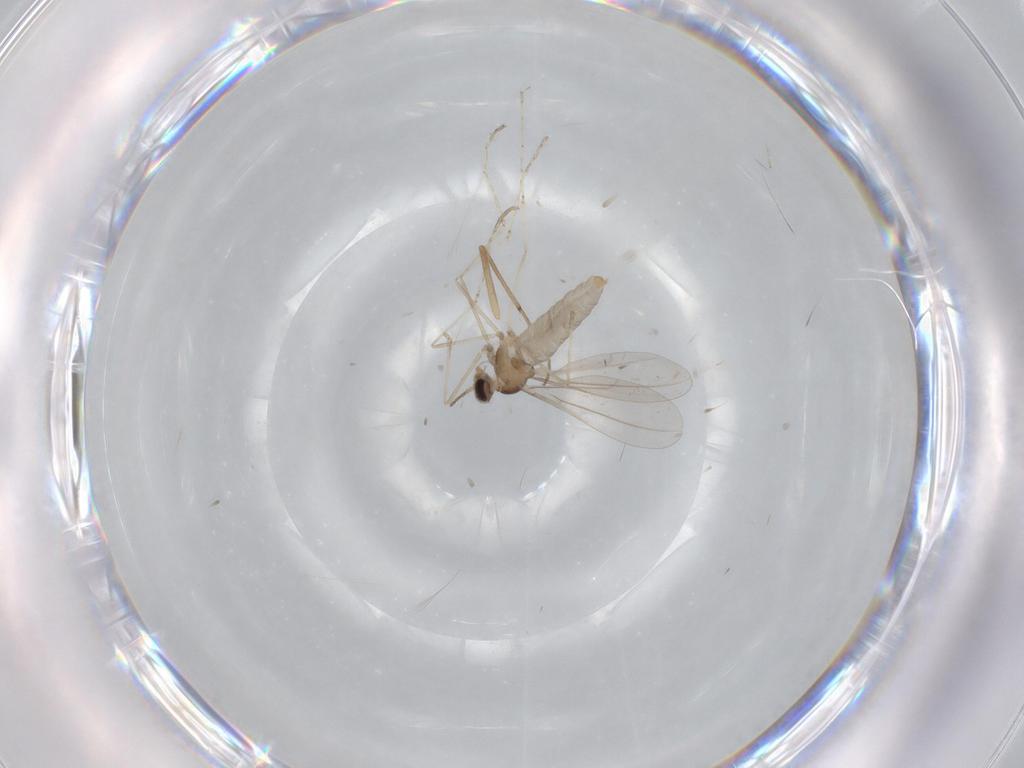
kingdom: Animalia
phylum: Arthropoda
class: Insecta
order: Diptera
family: Cecidomyiidae
